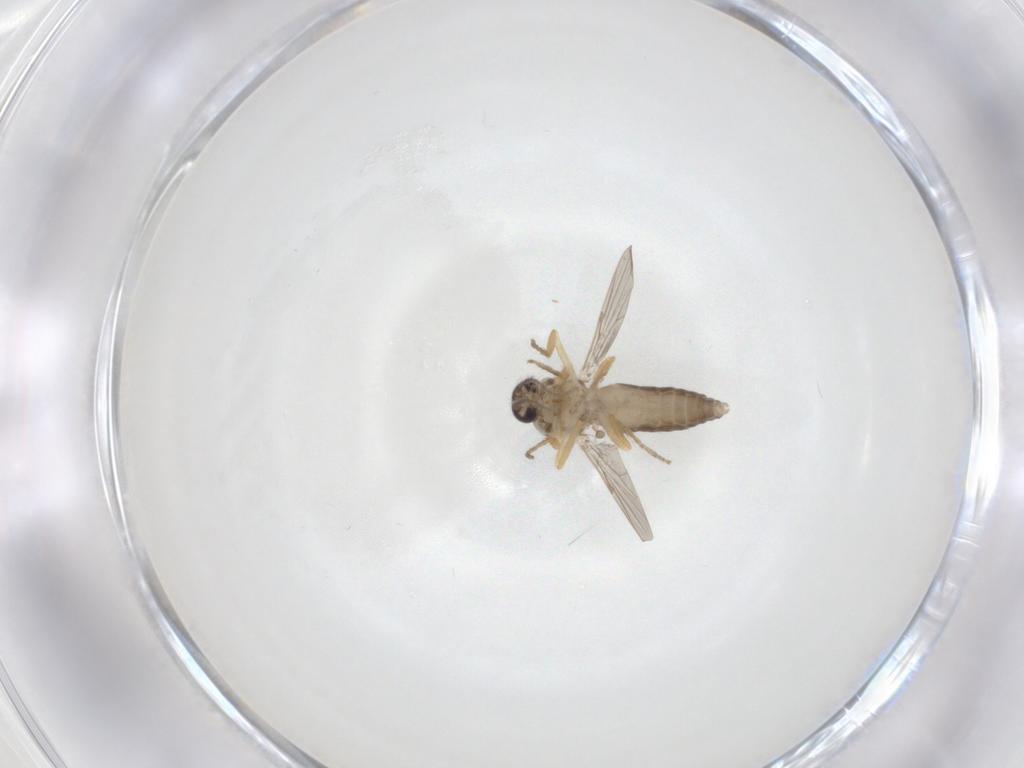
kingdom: Animalia
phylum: Arthropoda
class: Insecta
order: Diptera
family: Ceratopogonidae
